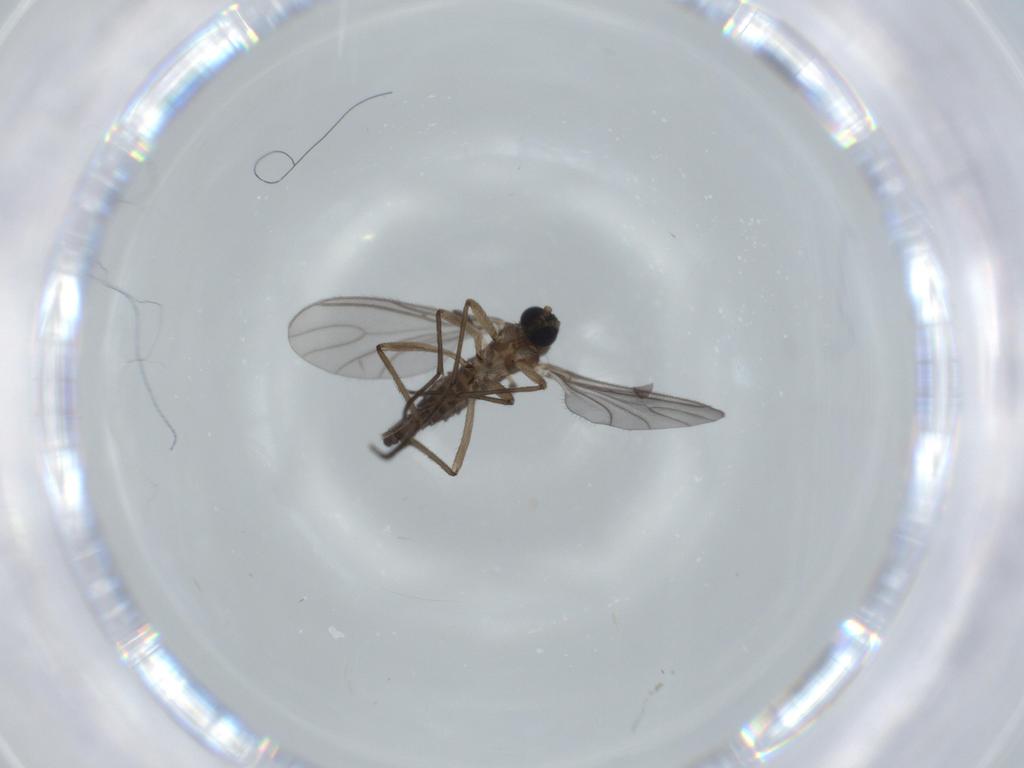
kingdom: Animalia
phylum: Arthropoda
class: Insecta
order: Diptera
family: Sciaridae
